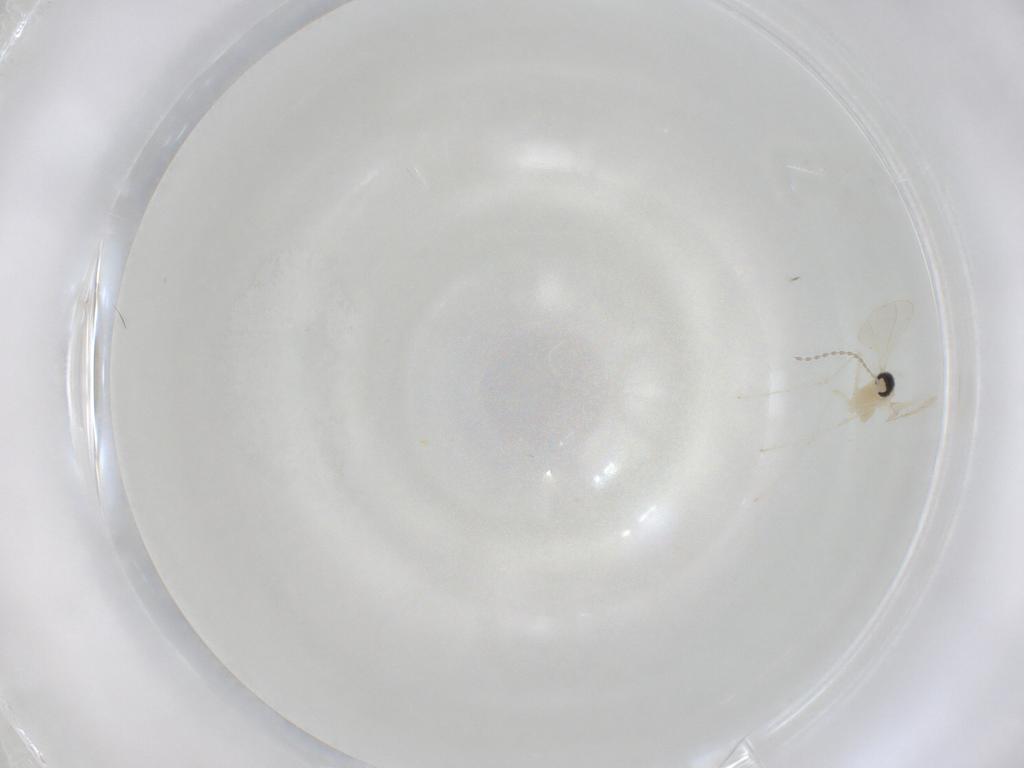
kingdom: Animalia
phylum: Arthropoda
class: Insecta
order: Diptera
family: Cecidomyiidae
